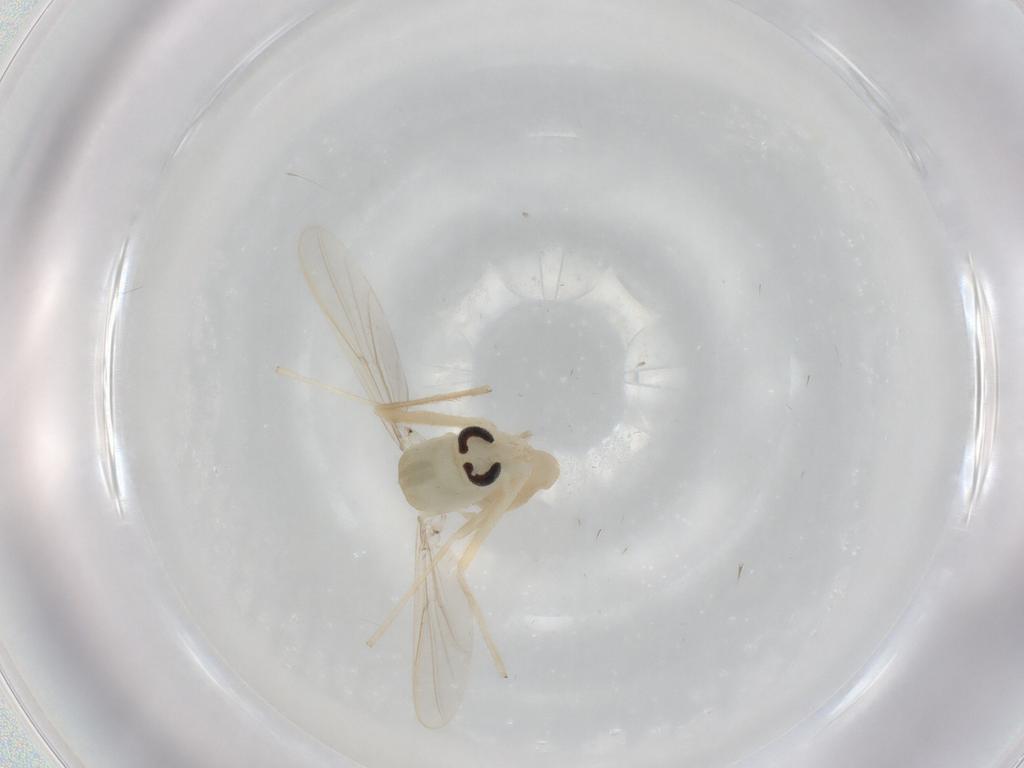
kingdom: Animalia
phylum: Arthropoda
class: Insecta
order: Diptera
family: Chironomidae
